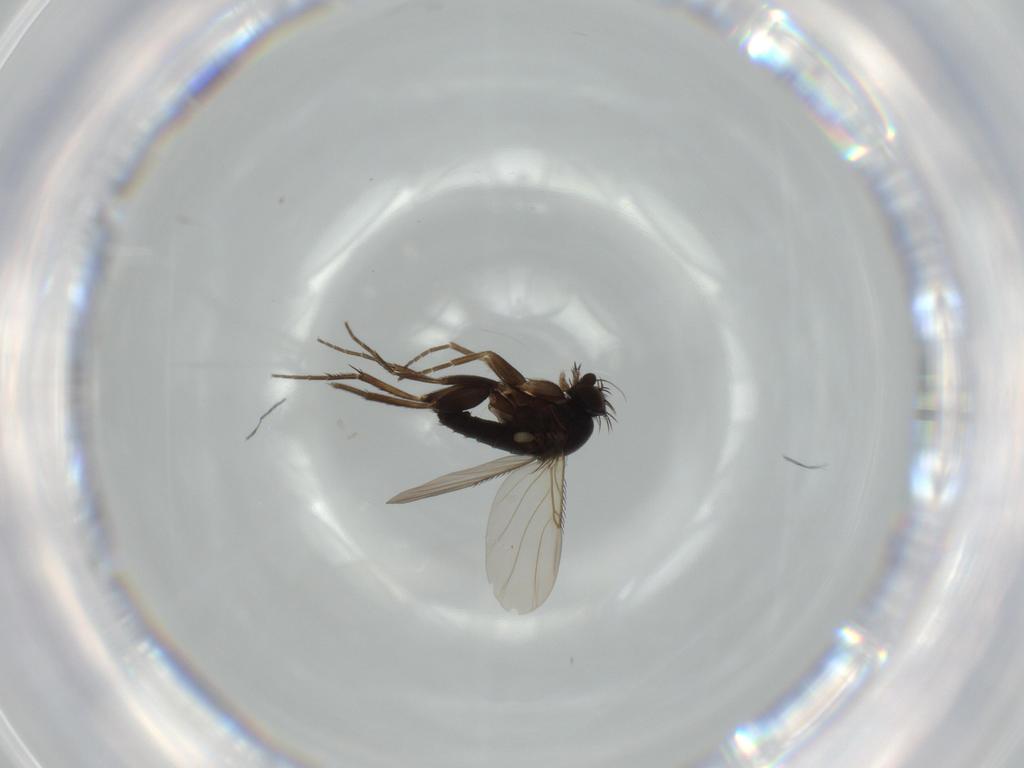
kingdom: Animalia
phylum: Arthropoda
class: Insecta
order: Diptera
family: Phoridae
